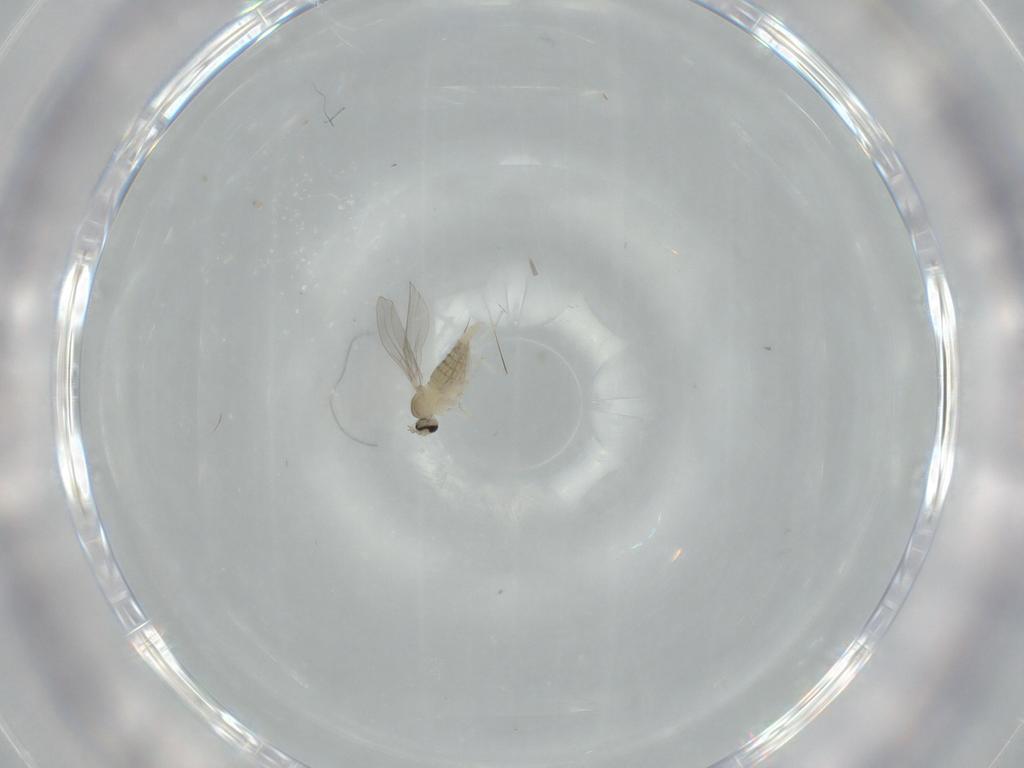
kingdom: Animalia
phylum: Arthropoda
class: Insecta
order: Diptera
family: Cecidomyiidae
